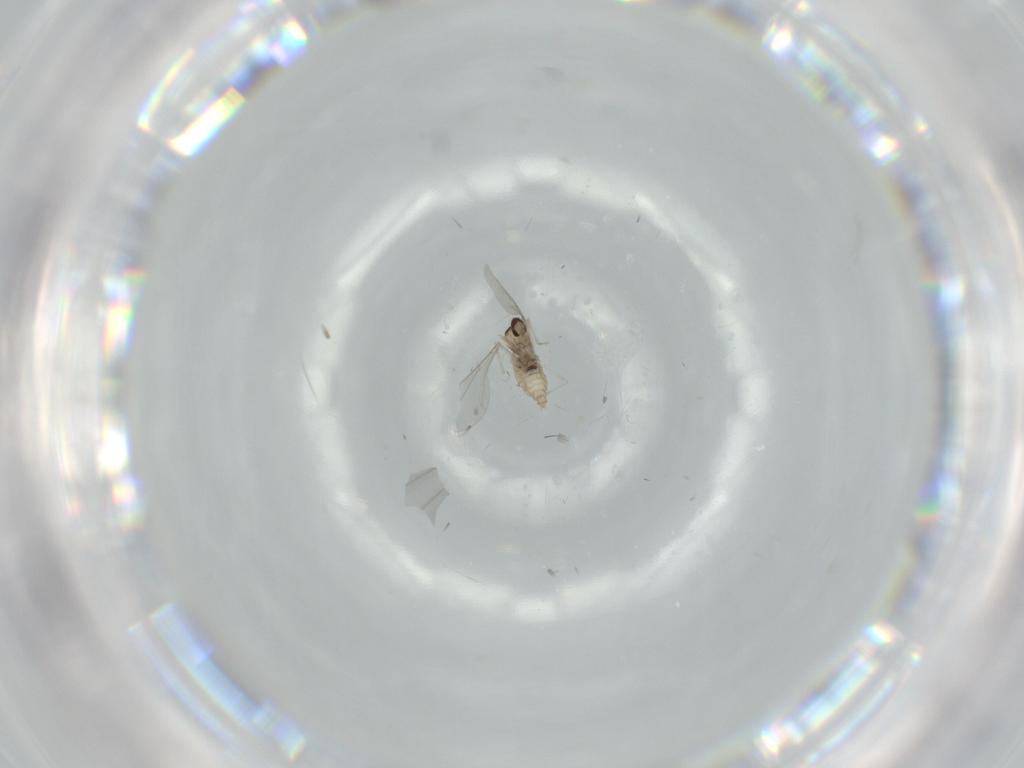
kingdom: Animalia
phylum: Arthropoda
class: Insecta
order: Diptera
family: Cecidomyiidae
